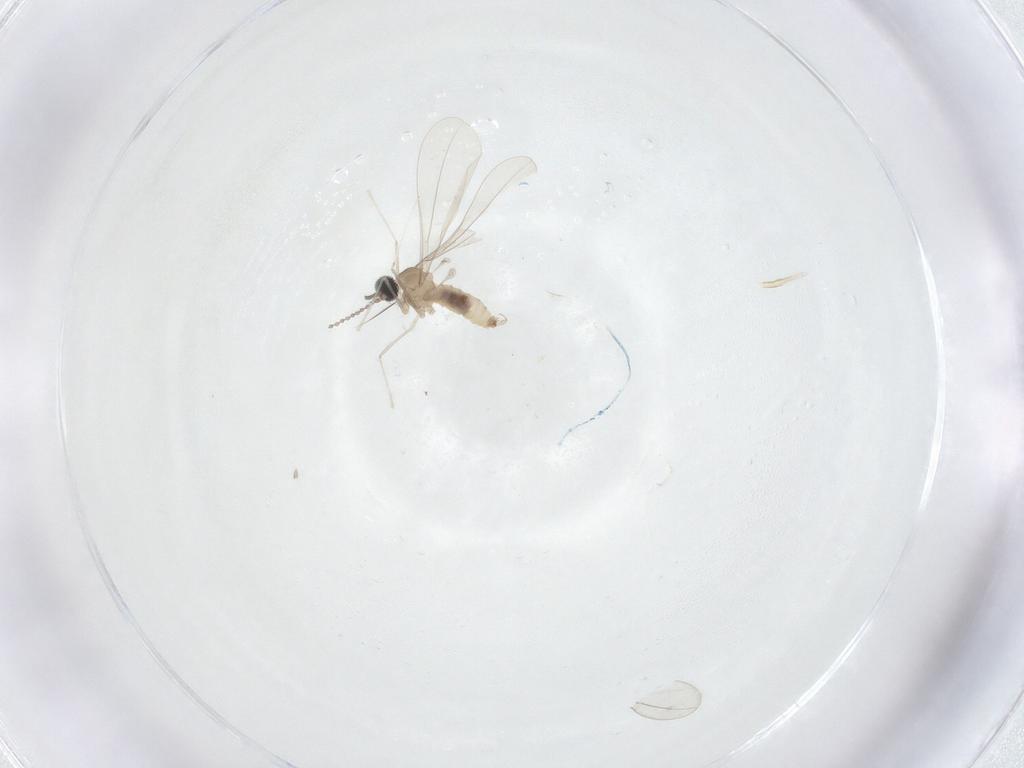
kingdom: Animalia
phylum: Arthropoda
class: Insecta
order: Diptera
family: Cecidomyiidae
